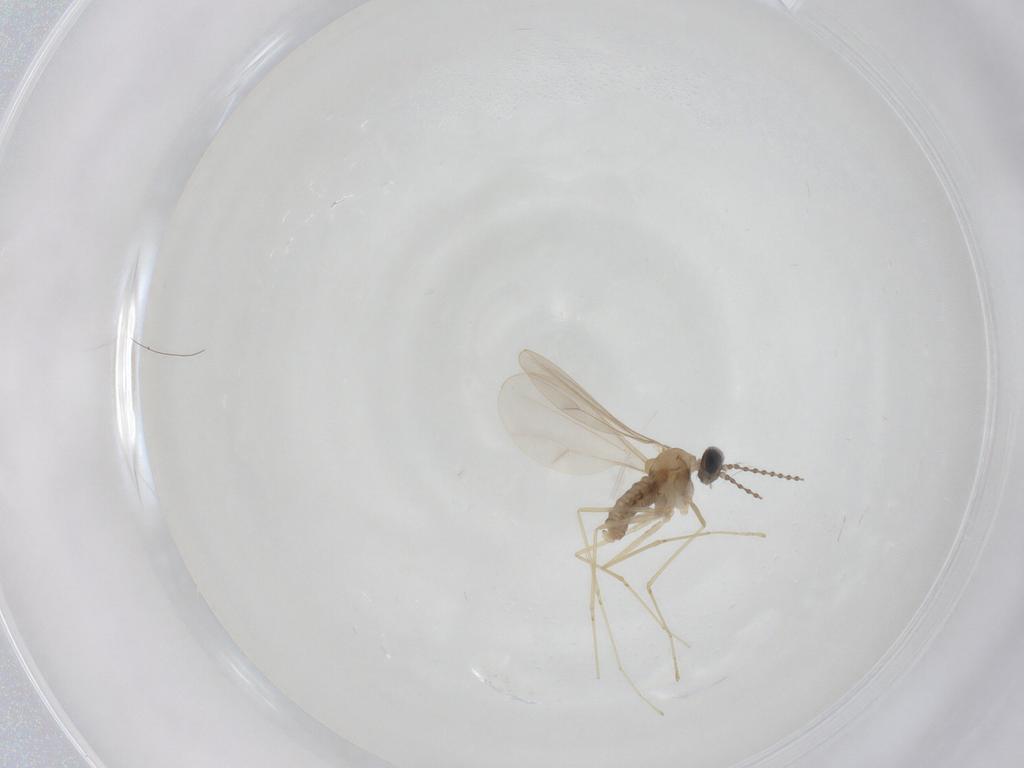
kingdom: Animalia
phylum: Arthropoda
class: Insecta
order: Diptera
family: Cecidomyiidae
